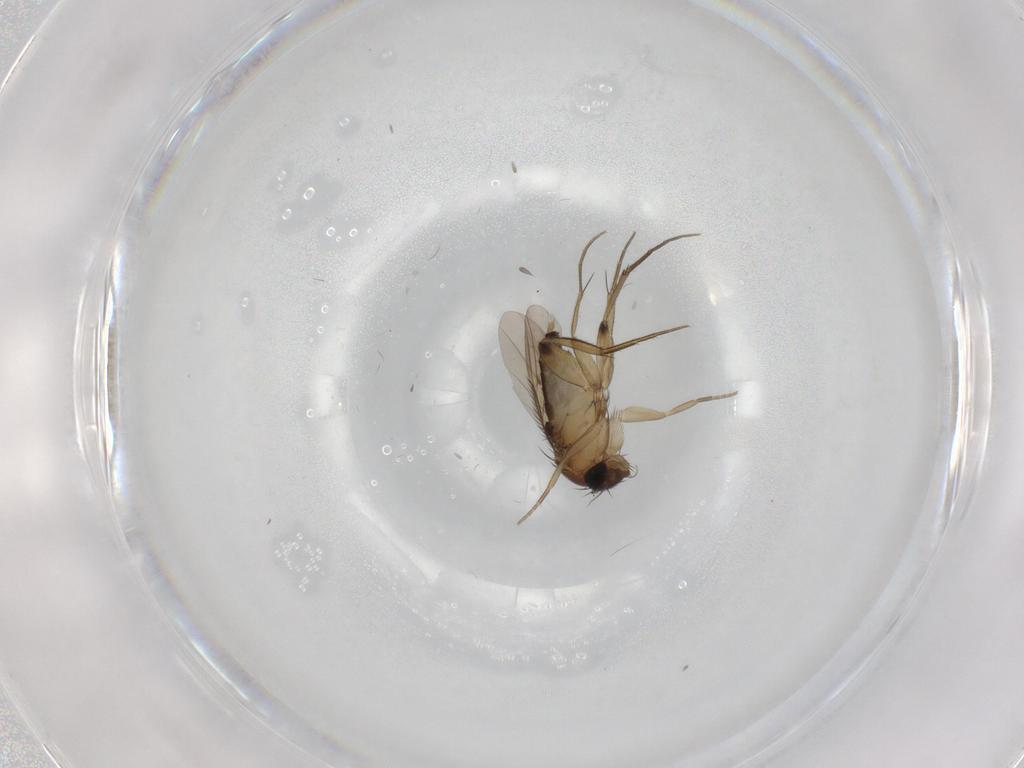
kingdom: Animalia
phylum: Arthropoda
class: Insecta
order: Diptera
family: Phoridae
